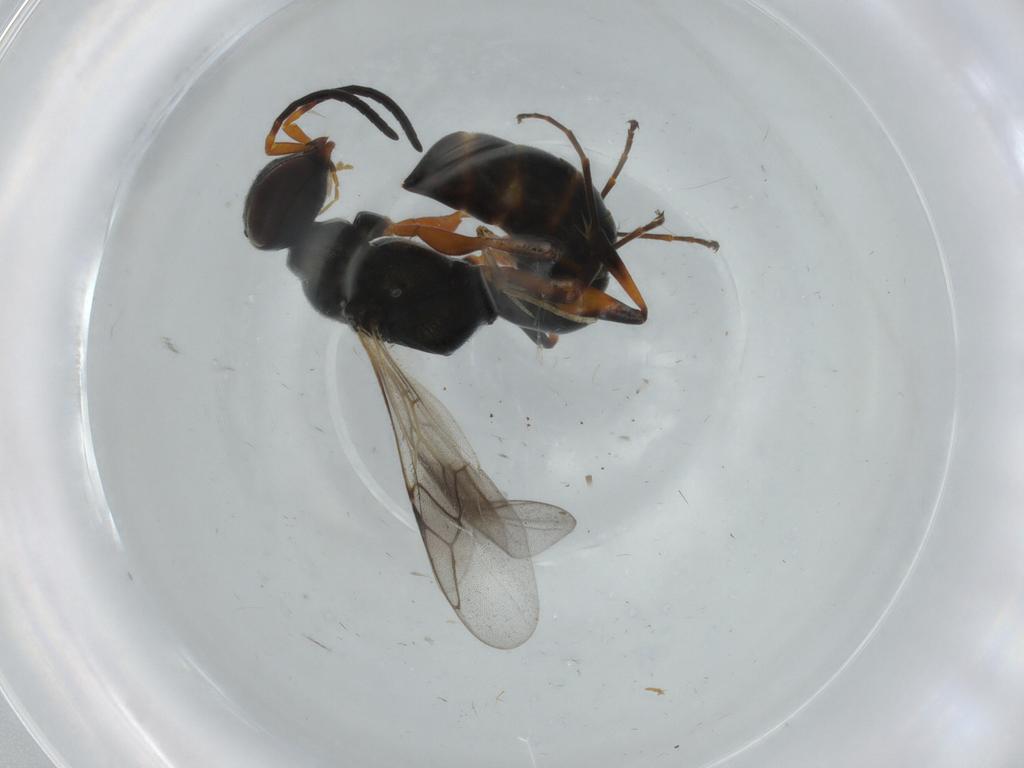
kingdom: Animalia
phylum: Arthropoda
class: Insecta
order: Hymenoptera
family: Crabronidae
